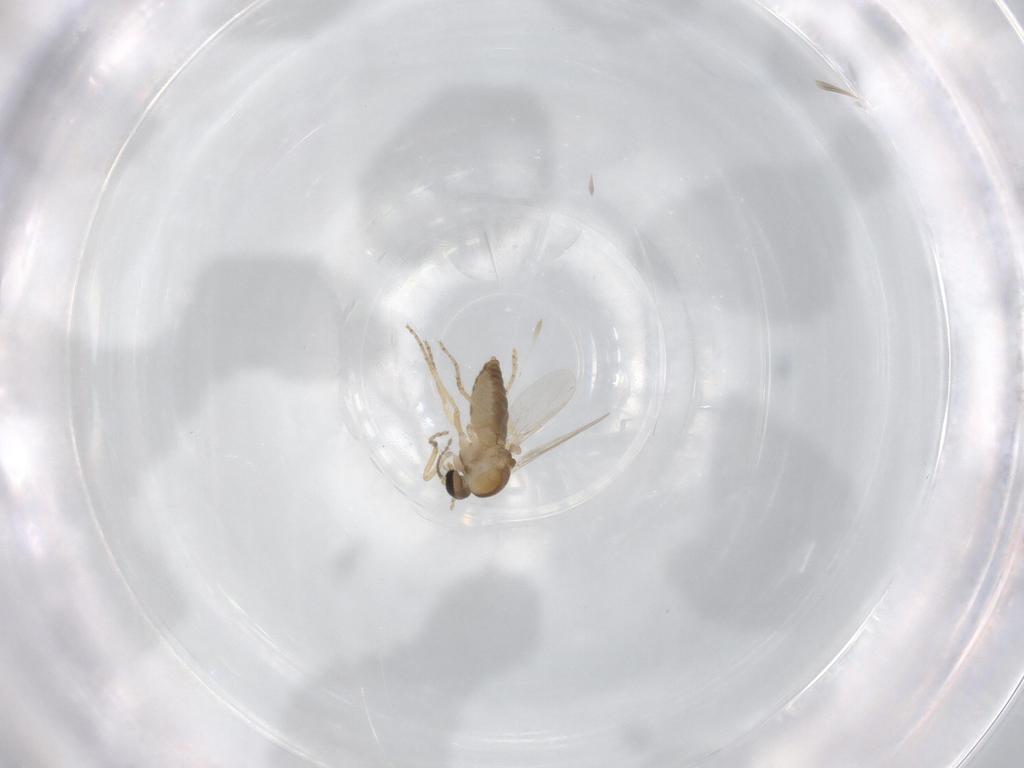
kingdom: Animalia
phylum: Arthropoda
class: Insecta
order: Diptera
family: Ceratopogonidae
